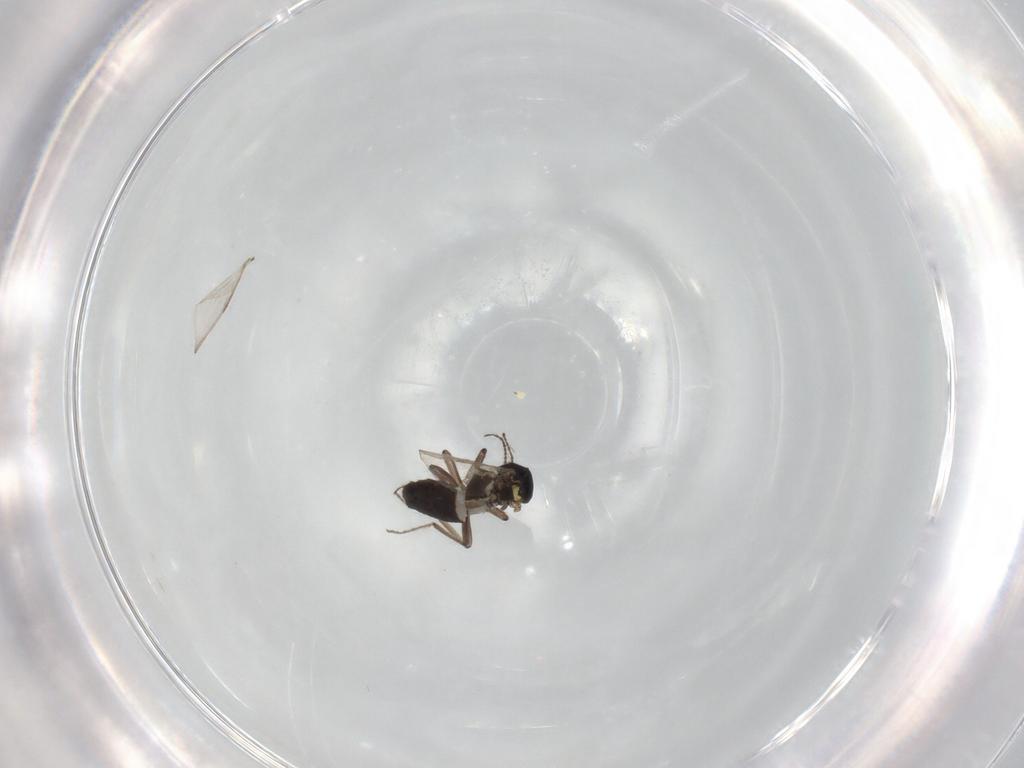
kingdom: Animalia
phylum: Arthropoda
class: Insecta
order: Diptera
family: Ceratopogonidae
